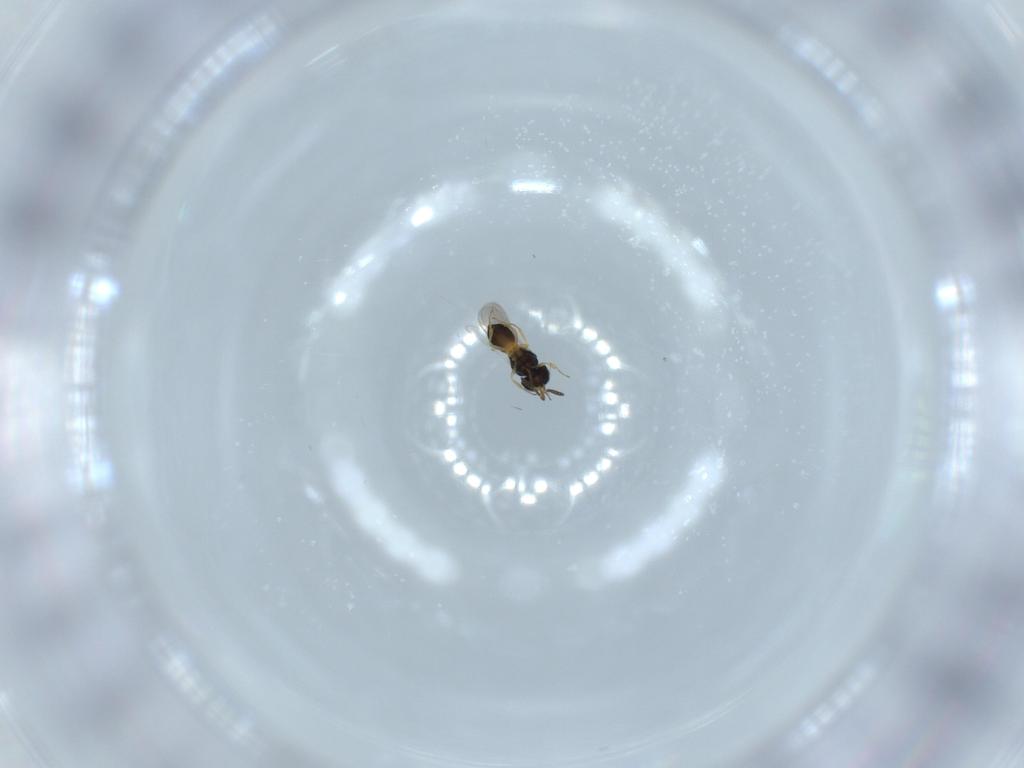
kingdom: Animalia
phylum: Arthropoda
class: Insecta
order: Hymenoptera
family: Scelionidae
